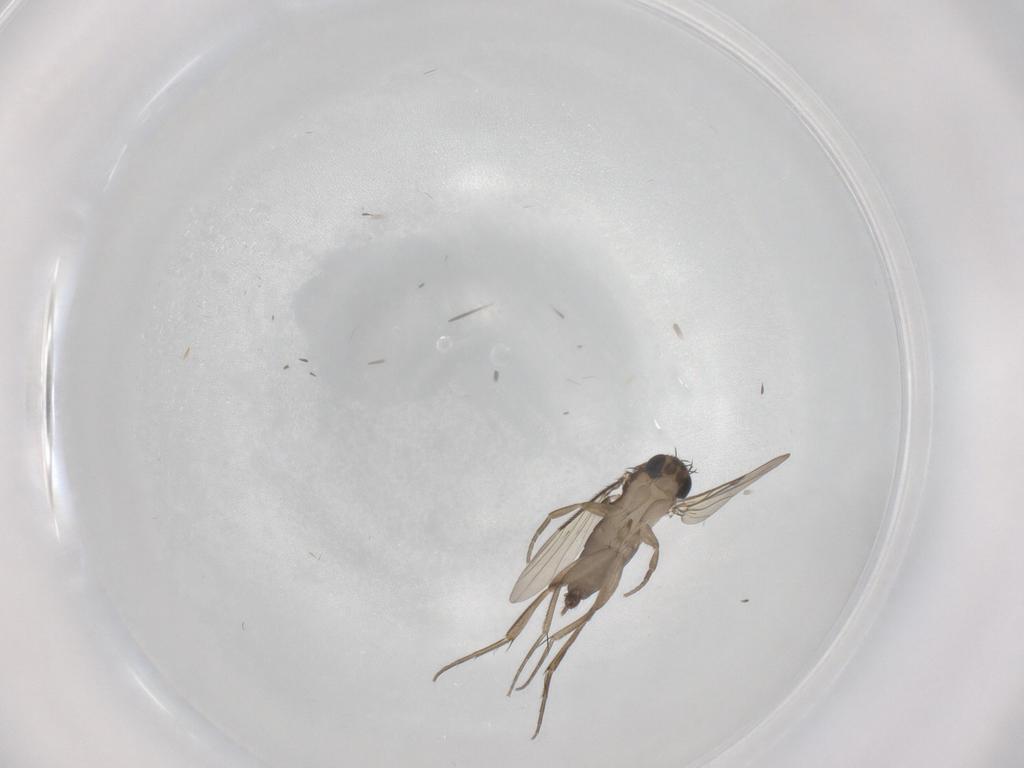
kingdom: Animalia
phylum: Arthropoda
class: Insecta
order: Diptera
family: Phoridae
